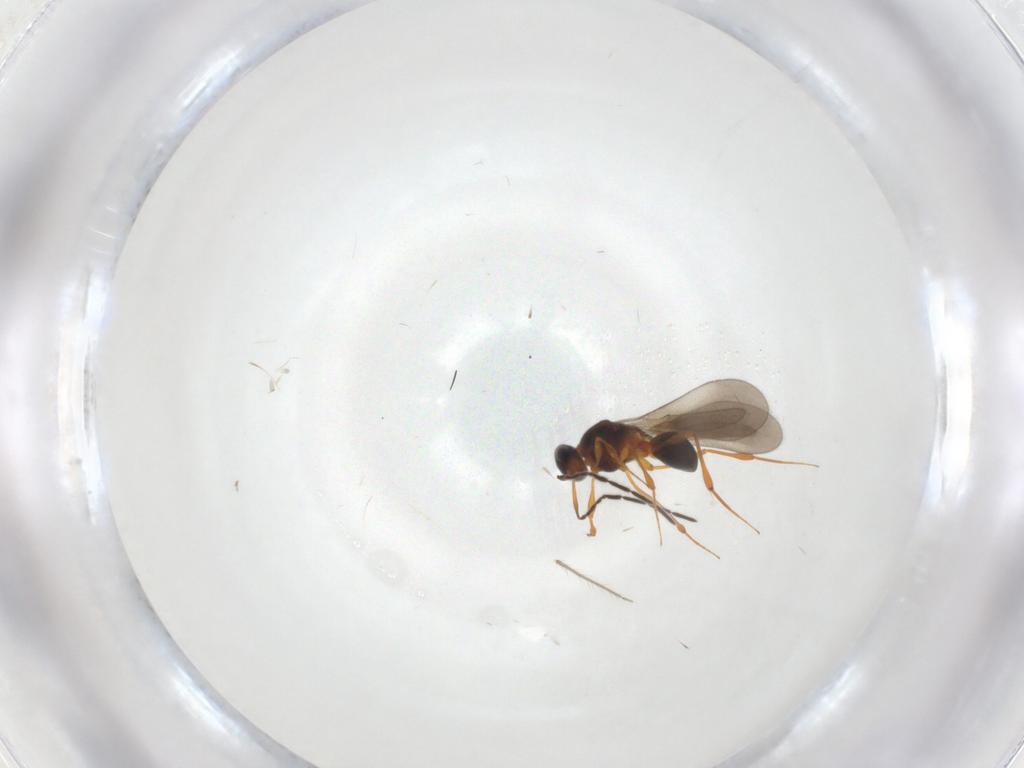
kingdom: Animalia
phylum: Arthropoda
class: Insecta
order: Hymenoptera
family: Platygastridae
